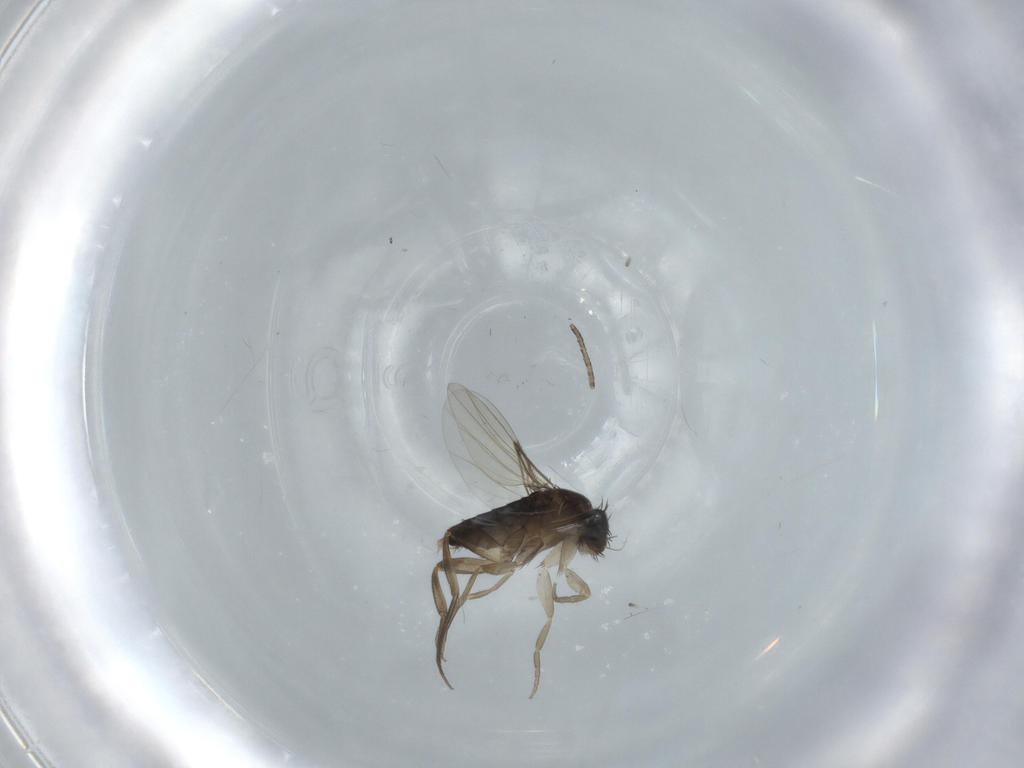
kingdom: Animalia
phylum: Arthropoda
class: Insecta
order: Diptera
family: Phoridae
